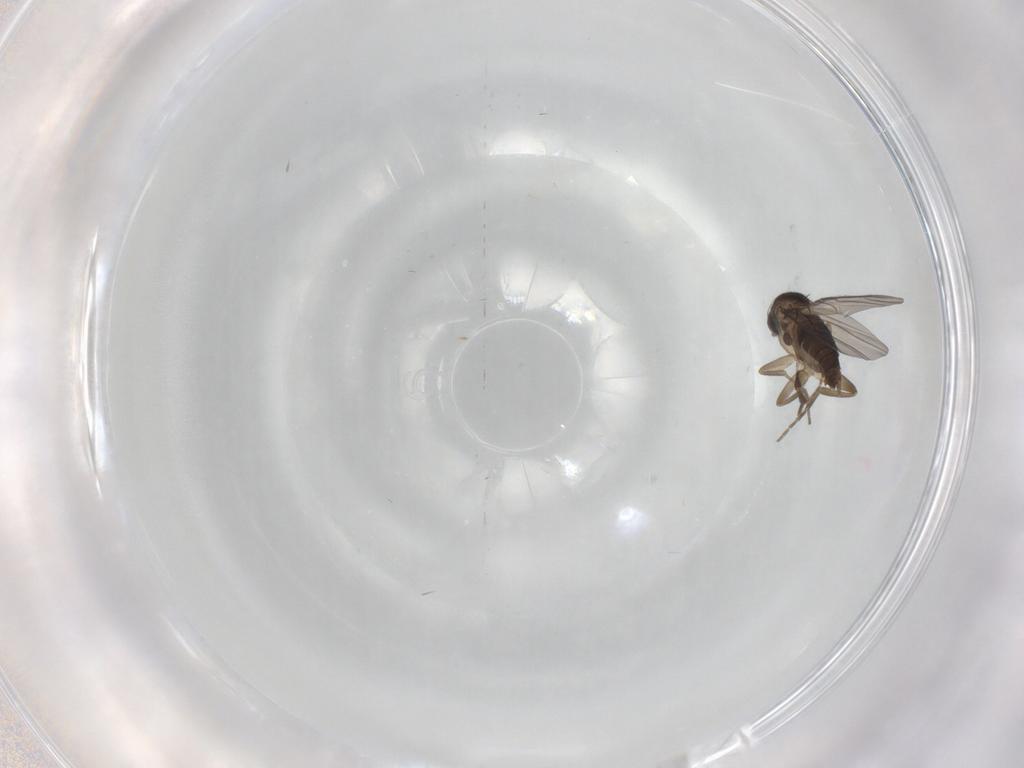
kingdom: Animalia
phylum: Arthropoda
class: Insecta
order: Diptera
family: Phoridae
